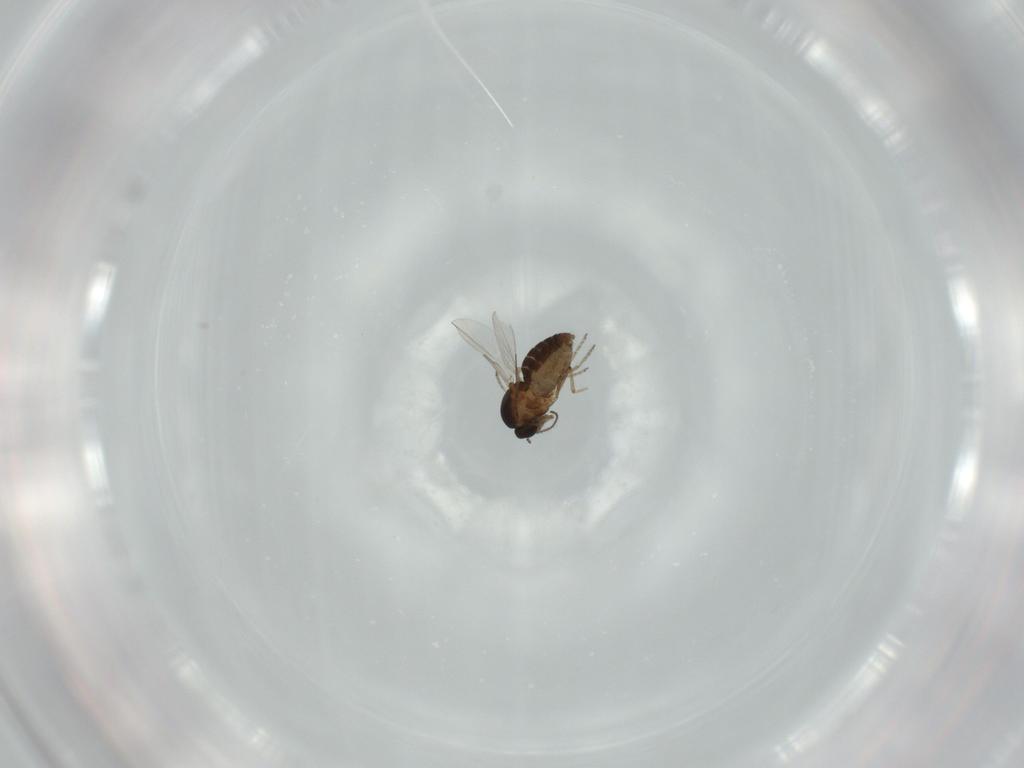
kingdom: Animalia
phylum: Arthropoda
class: Insecta
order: Diptera
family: Ceratopogonidae
